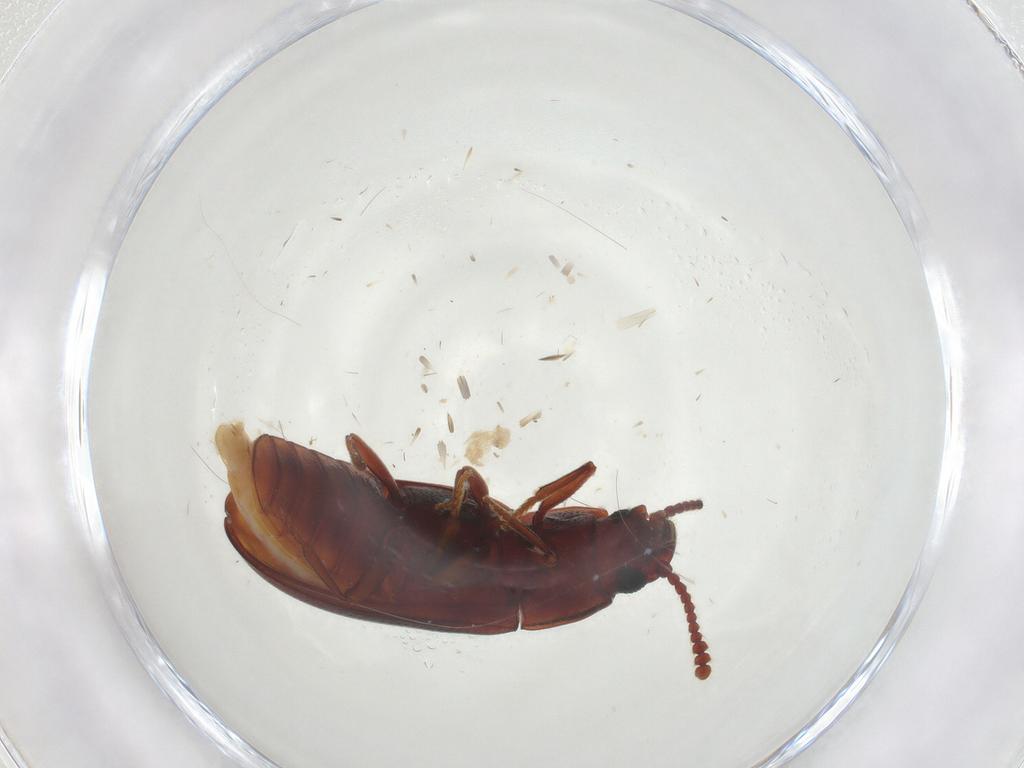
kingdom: Animalia
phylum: Arthropoda
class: Insecta
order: Coleoptera
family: Erotylidae
